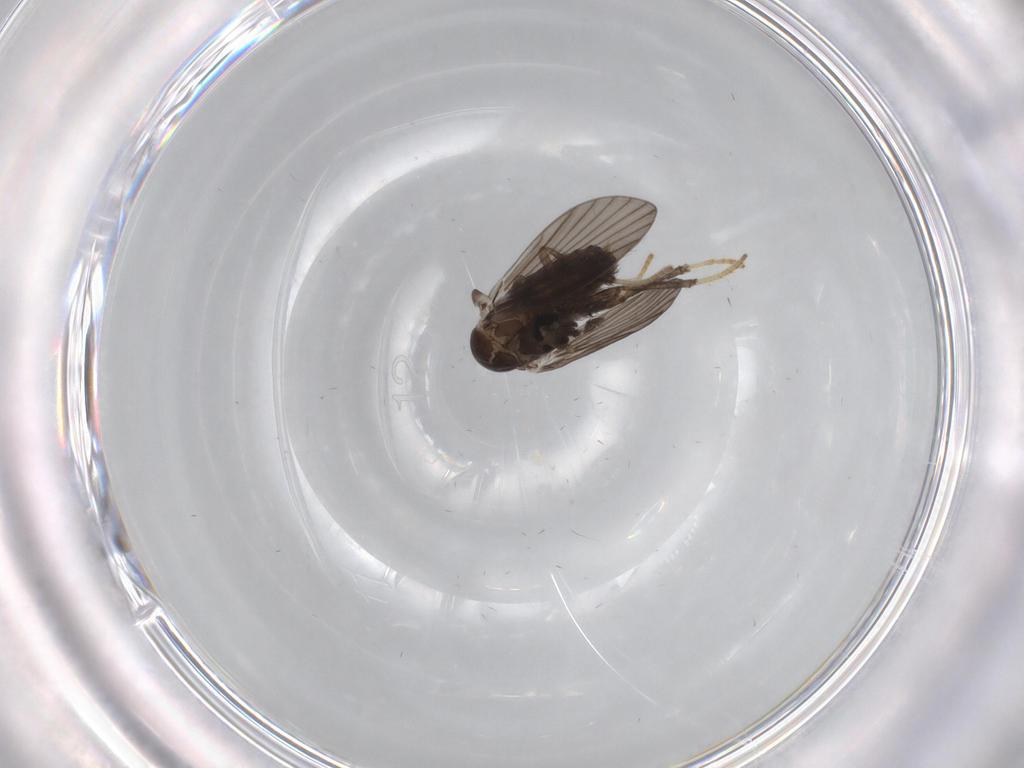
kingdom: Animalia
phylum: Arthropoda
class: Insecta
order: Diptera
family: Psychodidae
